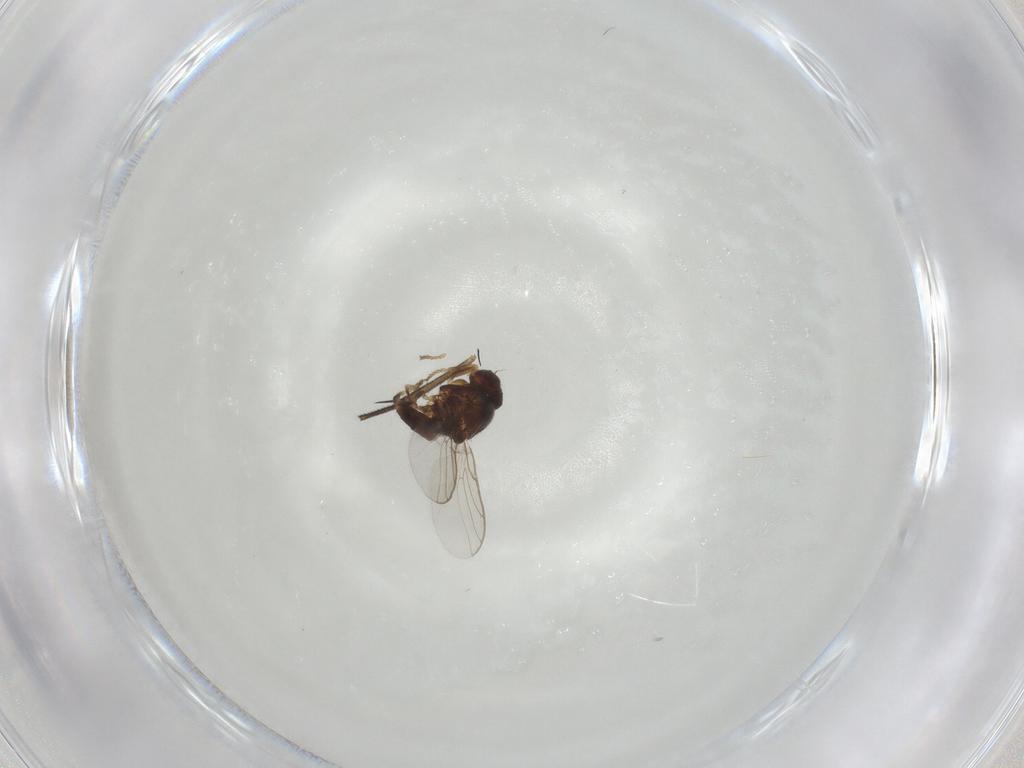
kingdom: Animalia
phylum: Arthropoda
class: Insecta
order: Diptera
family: Chloropidae
